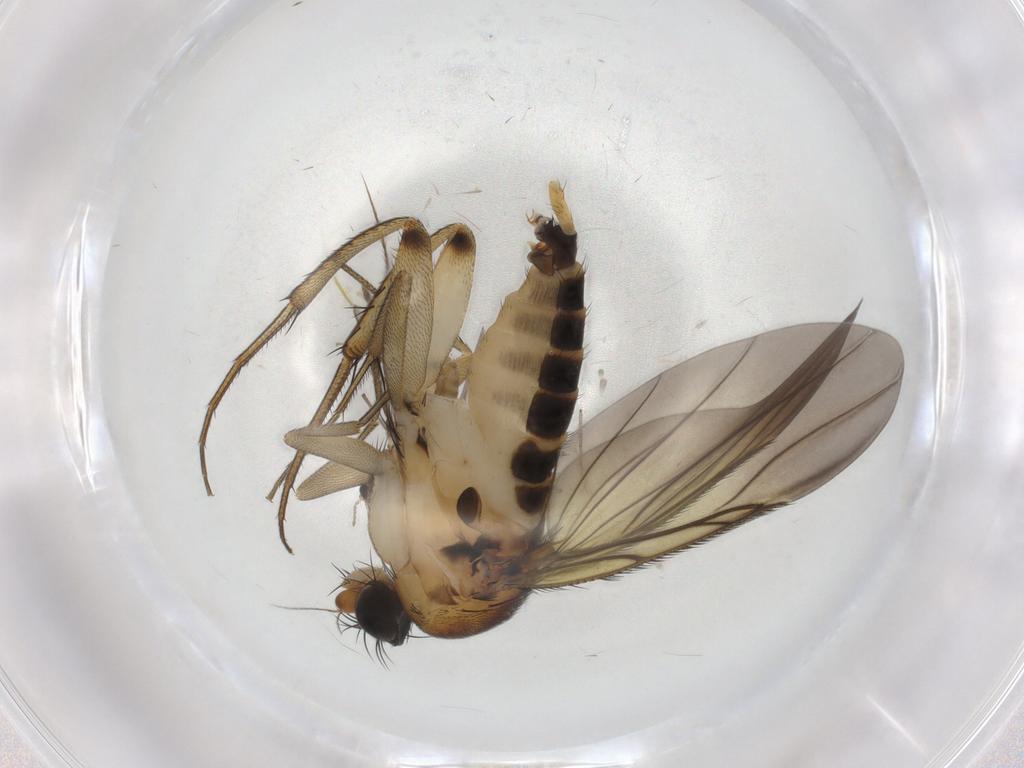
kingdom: Animalia
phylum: Arthropoda
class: Insecta
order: Diptera
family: Chironomidae
